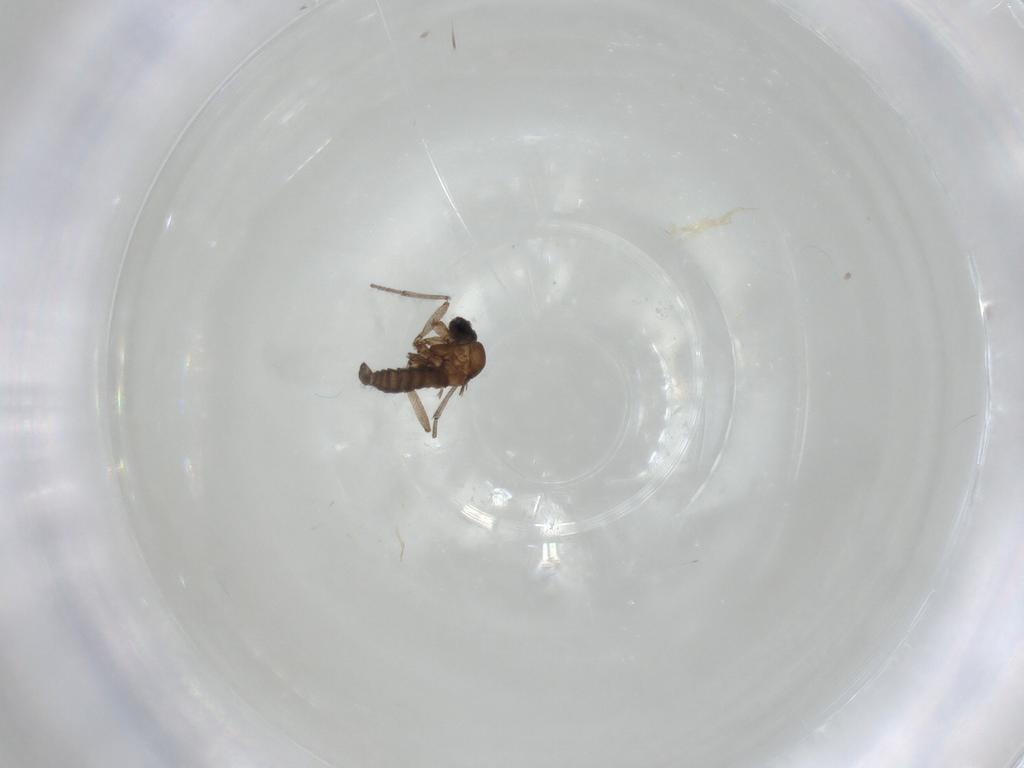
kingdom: Animalia
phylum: Arthropoda
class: Insecta
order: Diptera
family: Sciaridae
